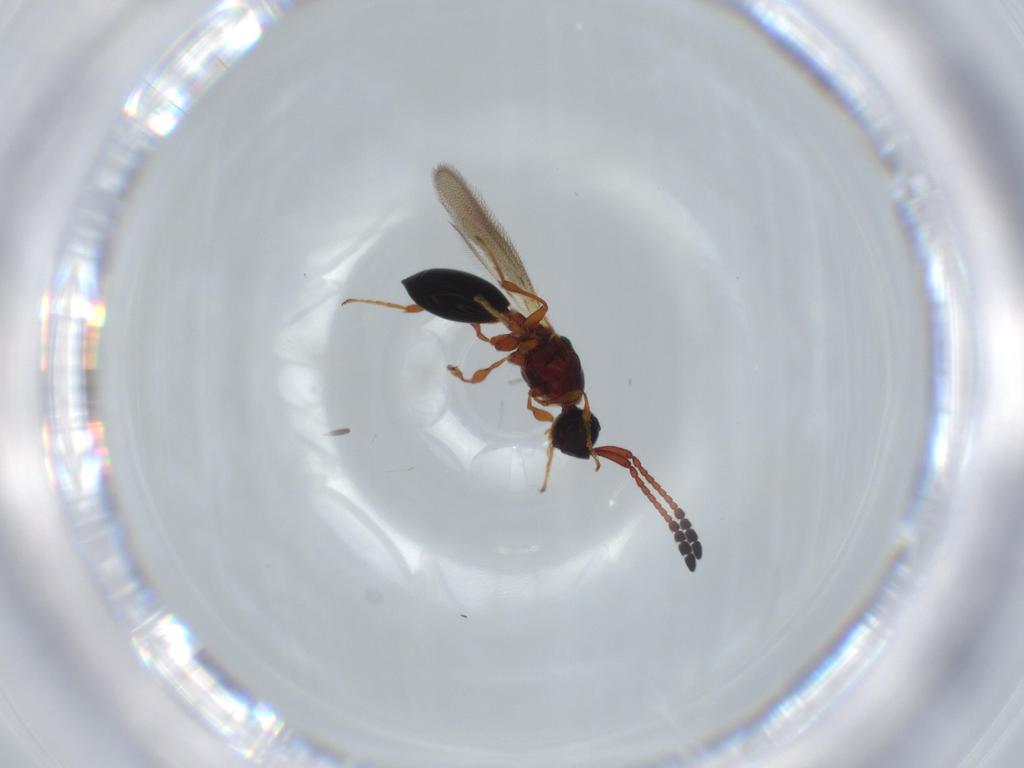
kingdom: Animalia
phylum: Arthropoda
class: Insecta
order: Hymenoptera
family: Diapriidae
